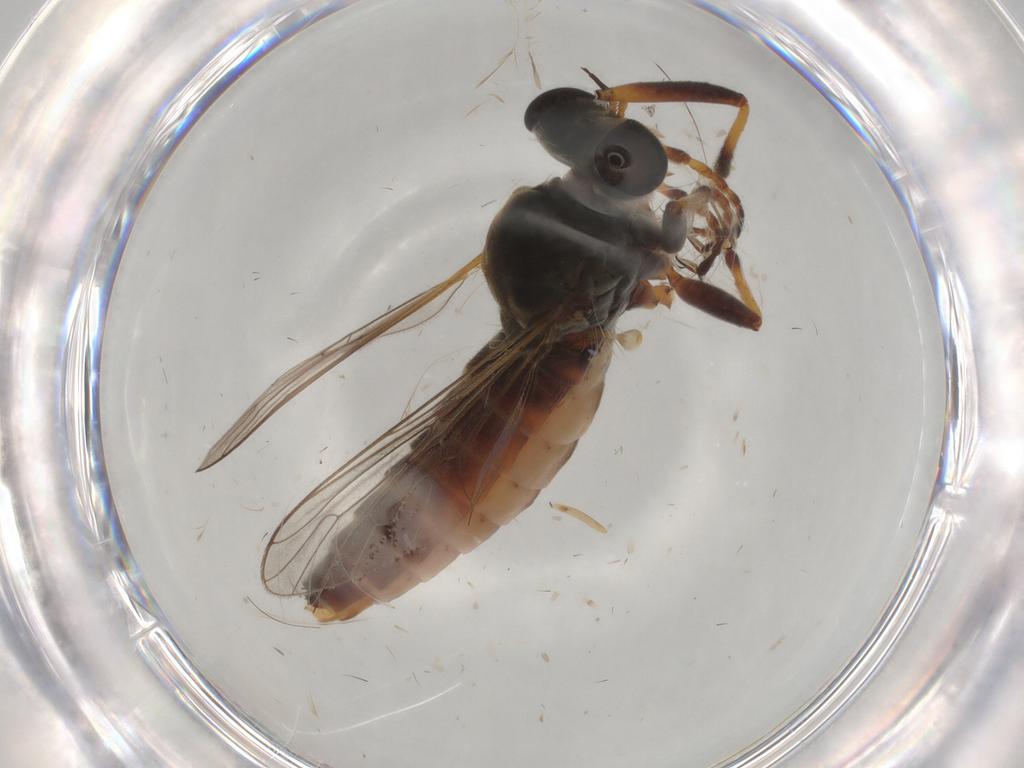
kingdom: Animalia
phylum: Arthropoda
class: Insecta
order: Diptera
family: Asilidae
